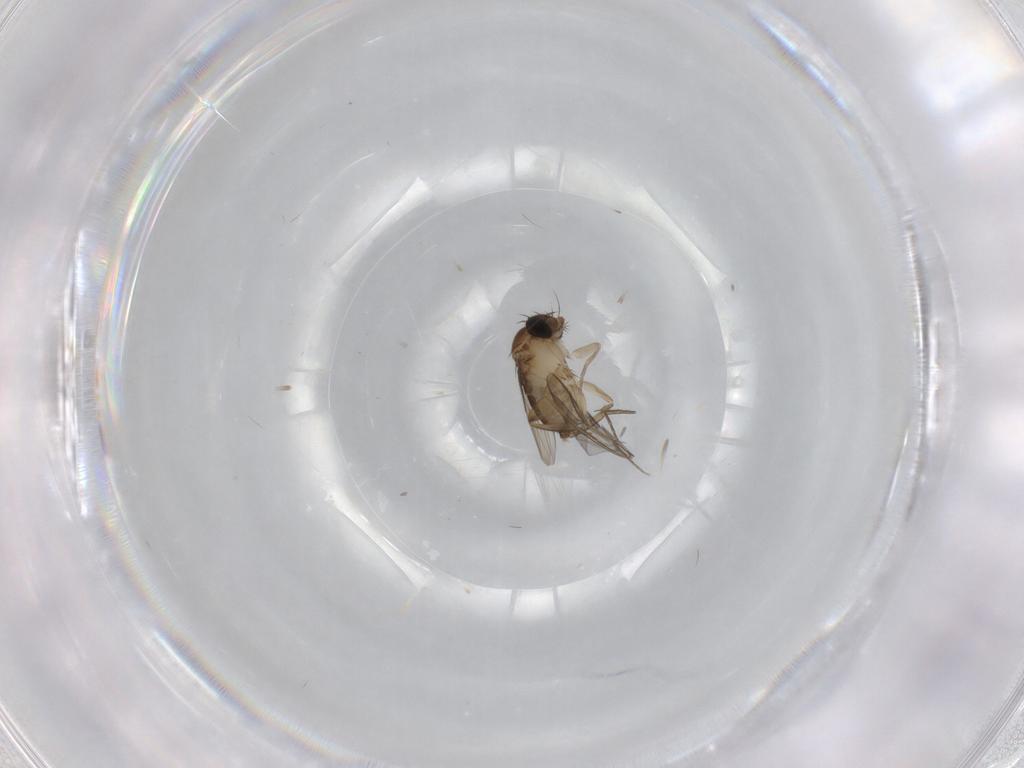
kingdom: Animalia
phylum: Arthropoda
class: Insecta
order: Diptera
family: Phoridae
